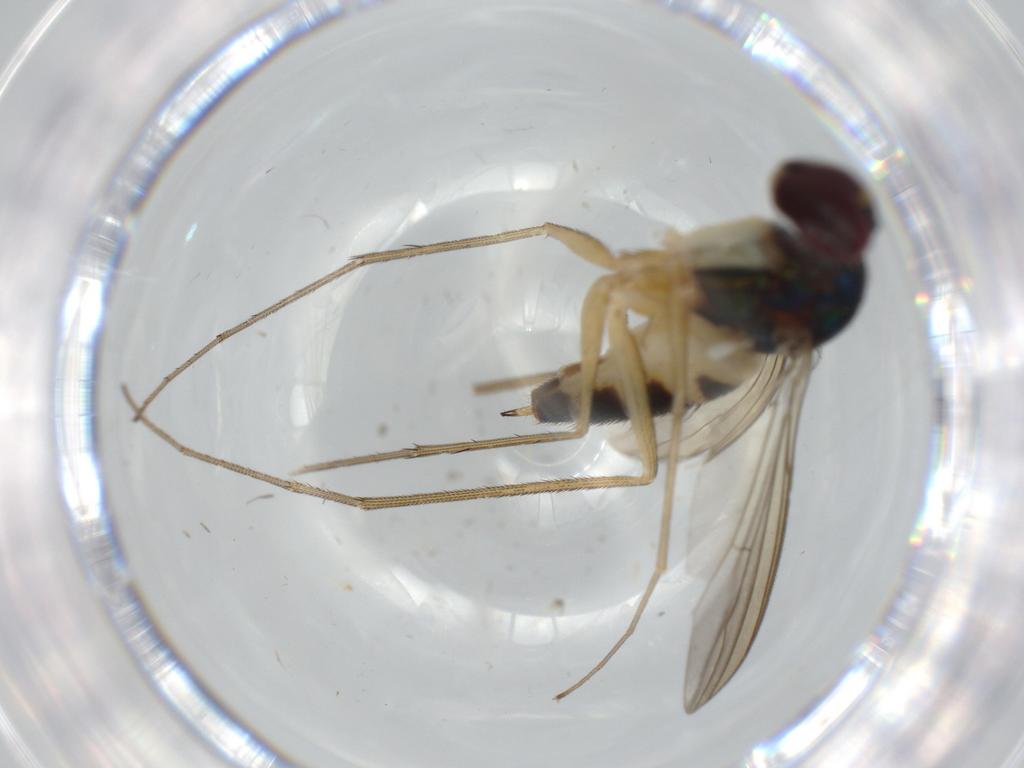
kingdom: Animalia
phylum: Arthropoda
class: Insecta
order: Diptera
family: Dolichopodidae
